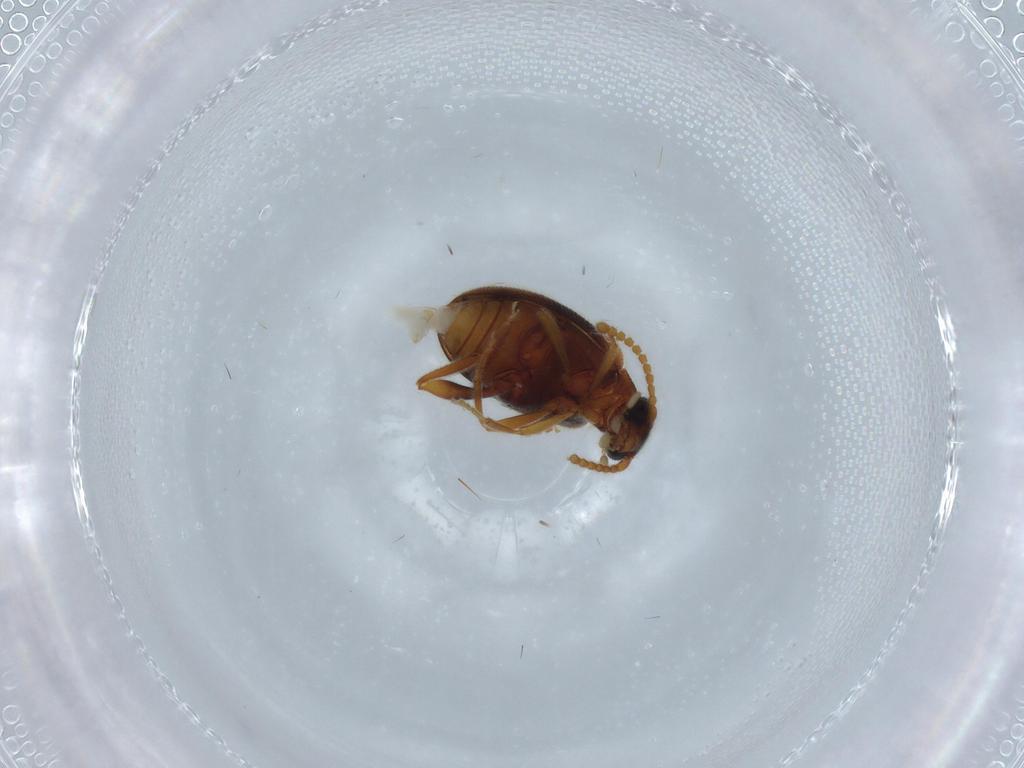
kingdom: Animalia
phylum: Arthropoda
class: Insecta
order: Coleoptera
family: Aderidae
